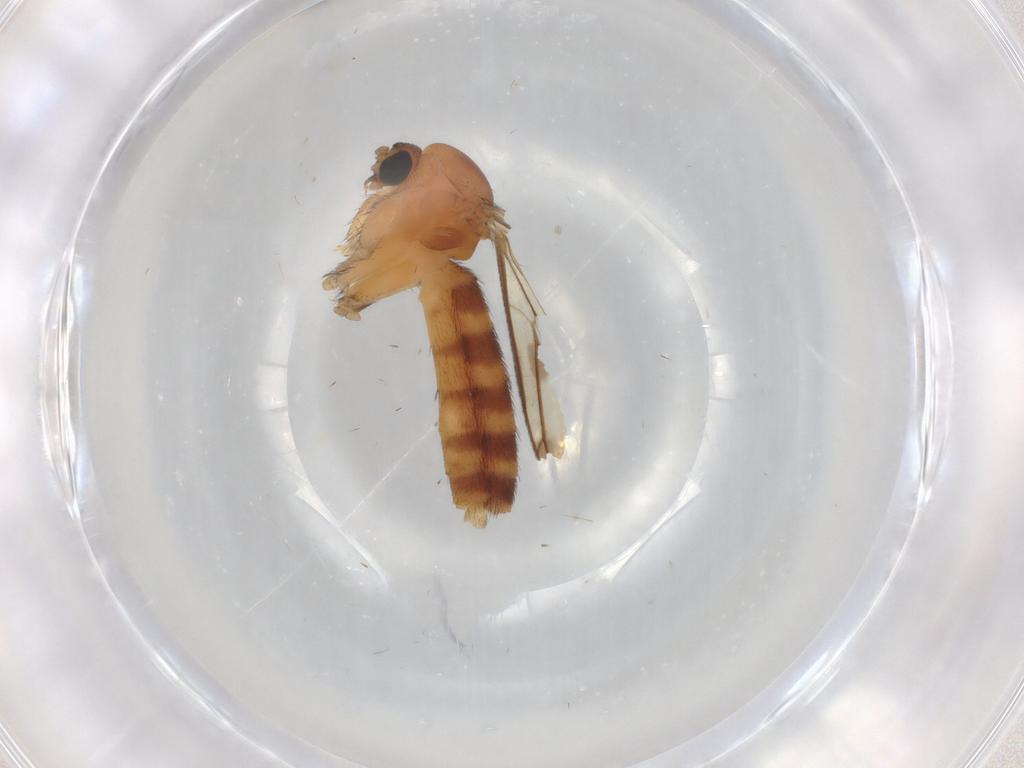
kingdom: Animalia
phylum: Arthropoda
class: Insecta
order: Diptera
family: Keroplatidae
